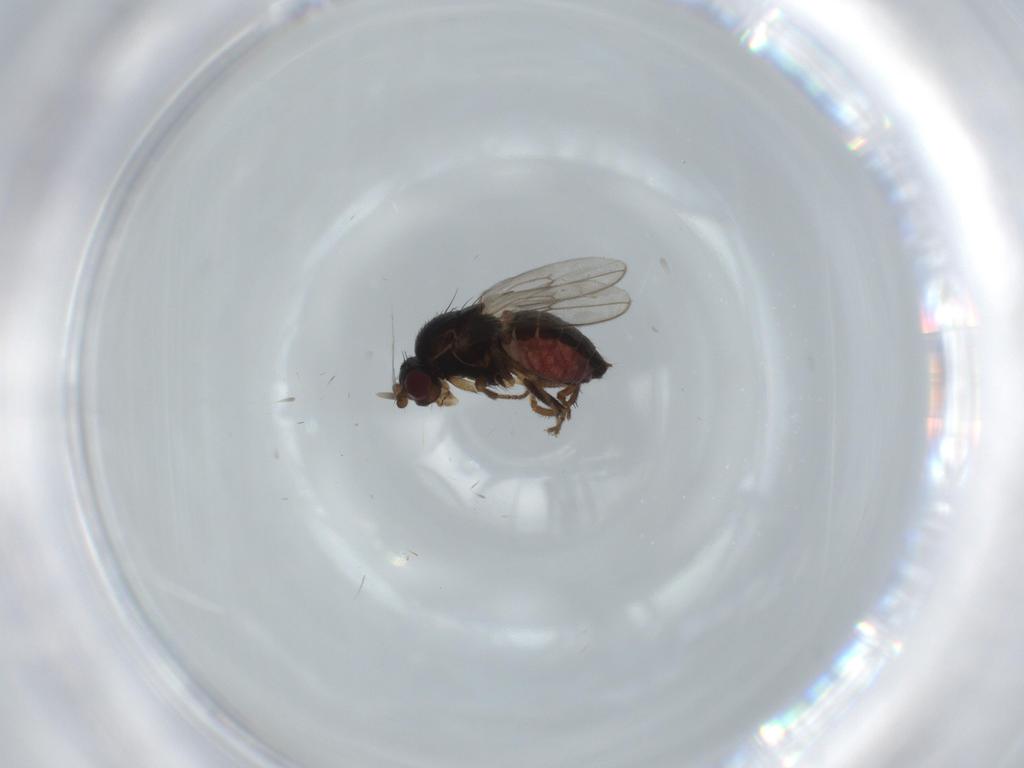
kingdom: Animalia
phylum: Arthropoda
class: Insecta
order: Diptera
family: Sphaeroceridae
